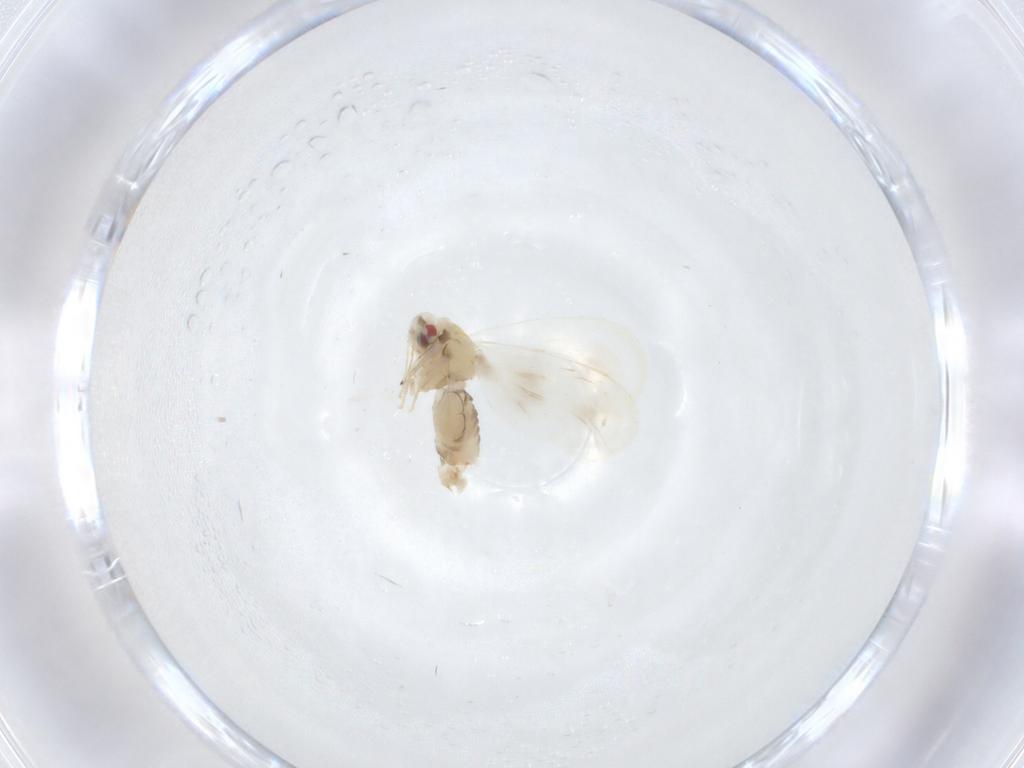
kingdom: Animalia
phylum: Arthropoda
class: Insecta
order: Hemiptera
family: Aleyrodidae
